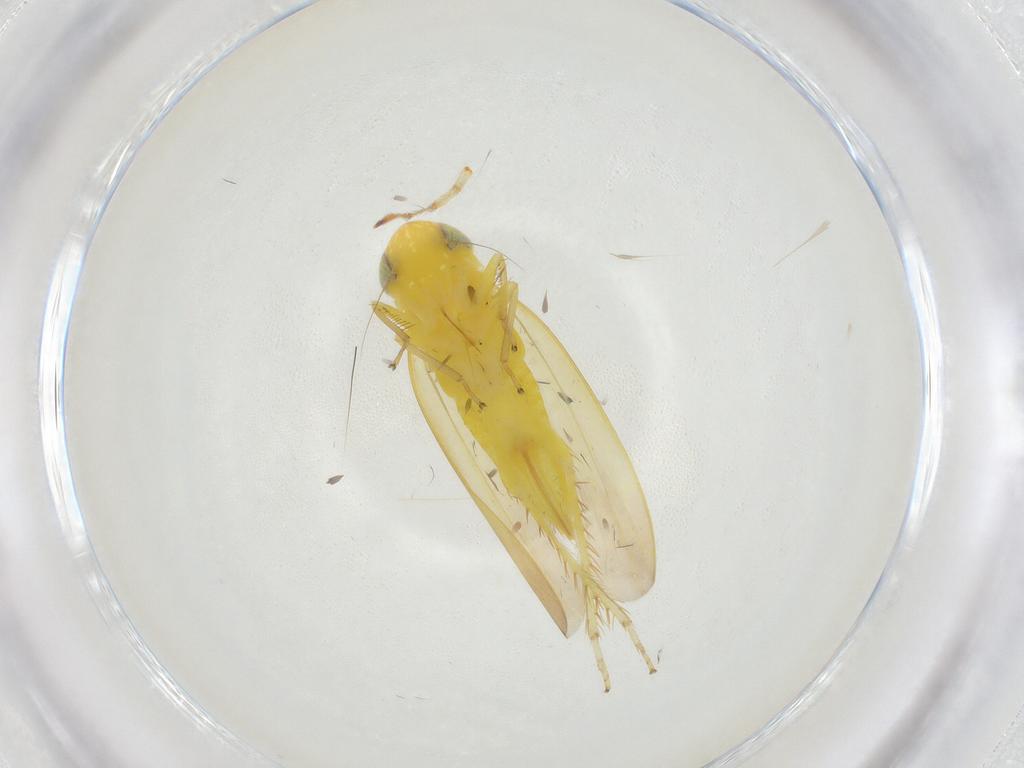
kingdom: Animalia
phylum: Arthropoda
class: Insecta
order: Hemiptera
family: Cicadellidae
